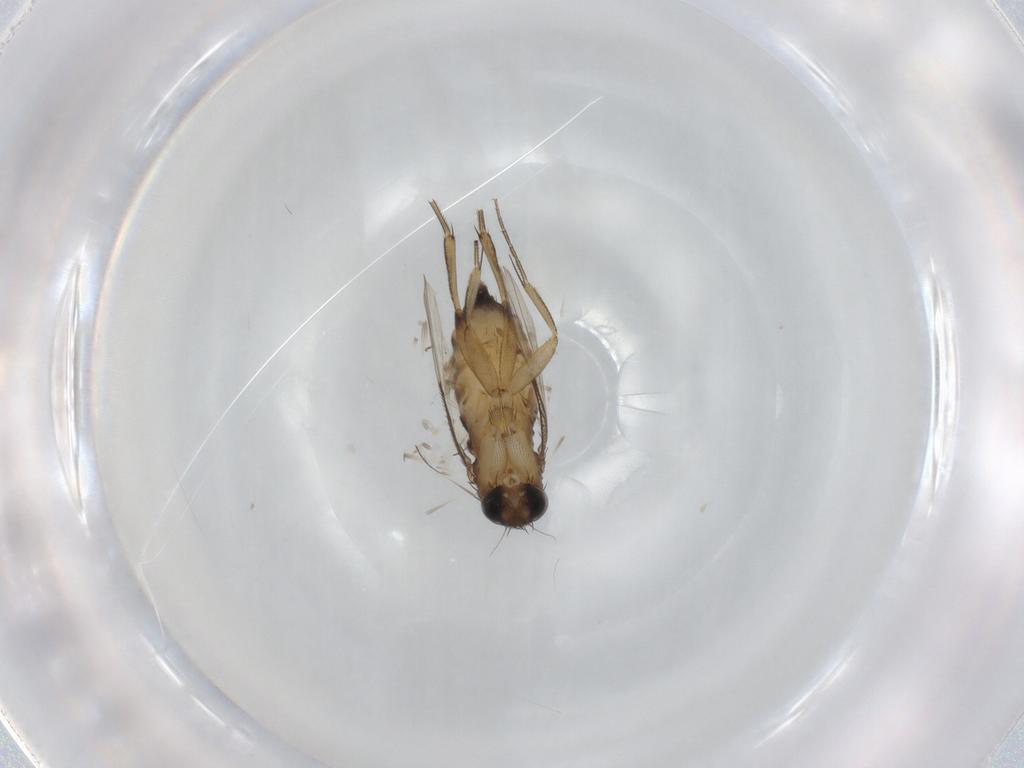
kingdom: Animalia
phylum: Arthropoda
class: Insecta
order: Diptera
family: Phoridae
